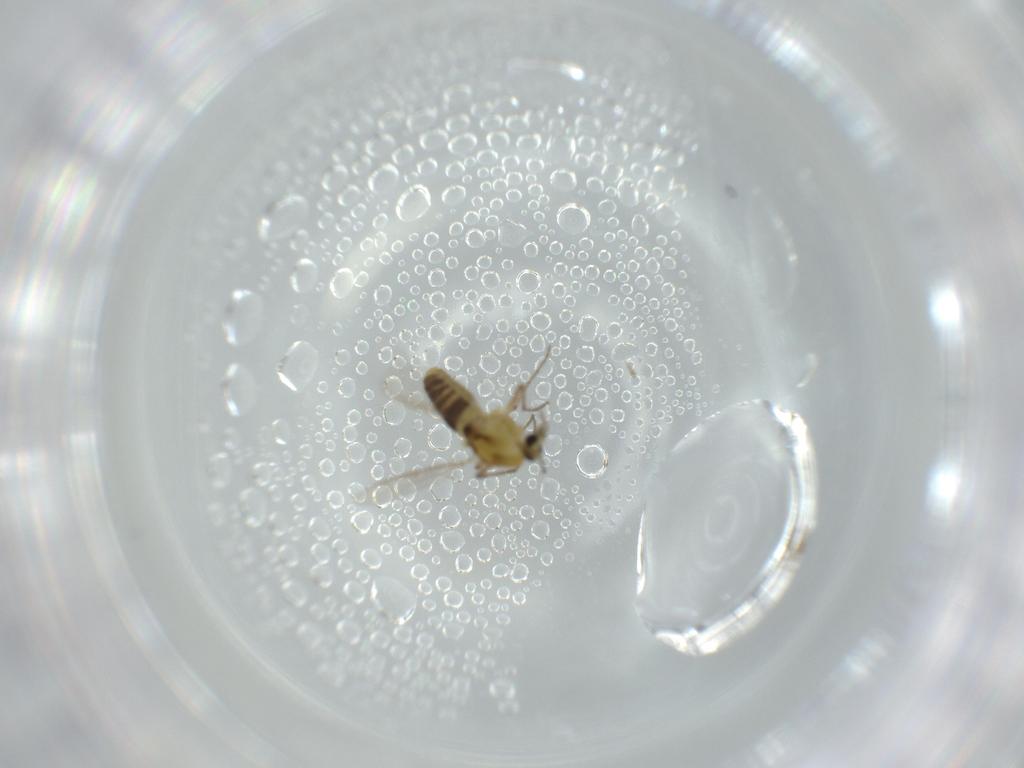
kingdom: Animalia
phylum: Arthropoda
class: Insecta
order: Diptera
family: Chironomidae
